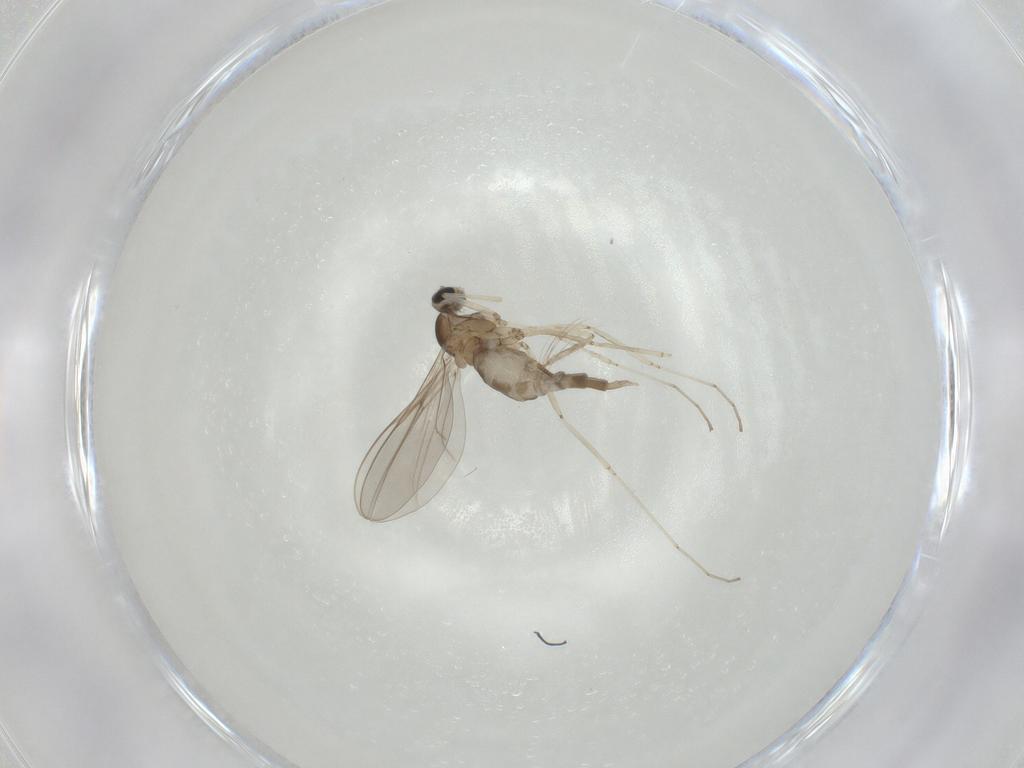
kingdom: Animalia
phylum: Arthropoda
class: Insecta
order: Diptera
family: Cecidomyiidae
